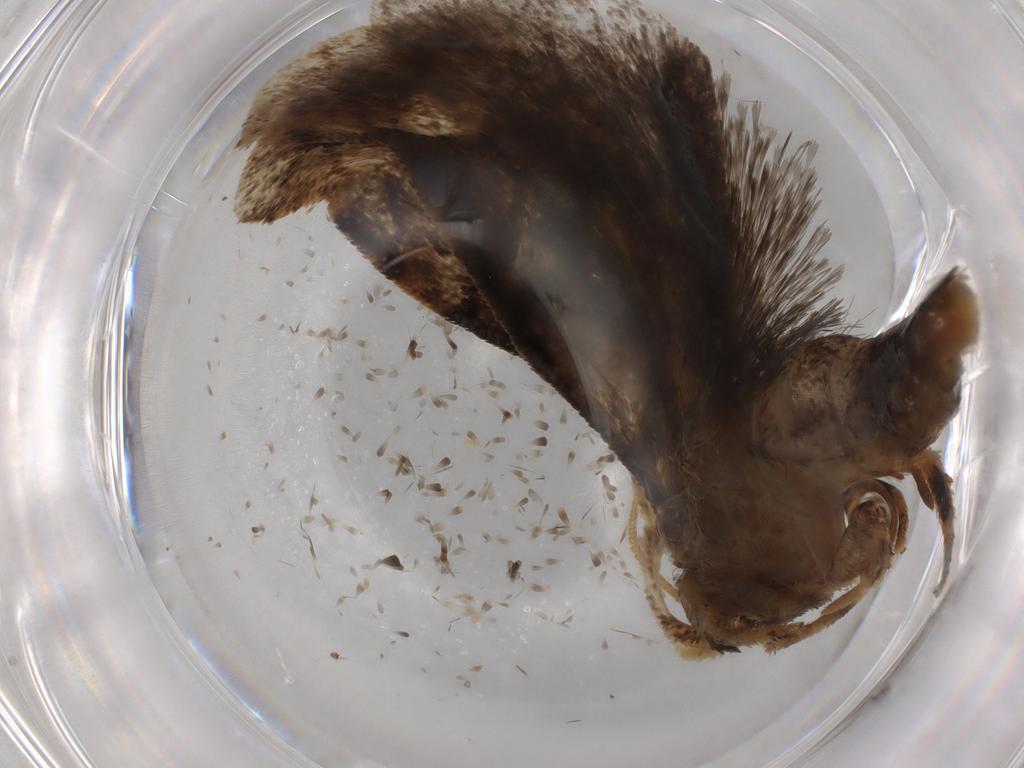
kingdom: Animalia
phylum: Arthropoda
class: Insecta
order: Lepidoptera
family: Tineidae
